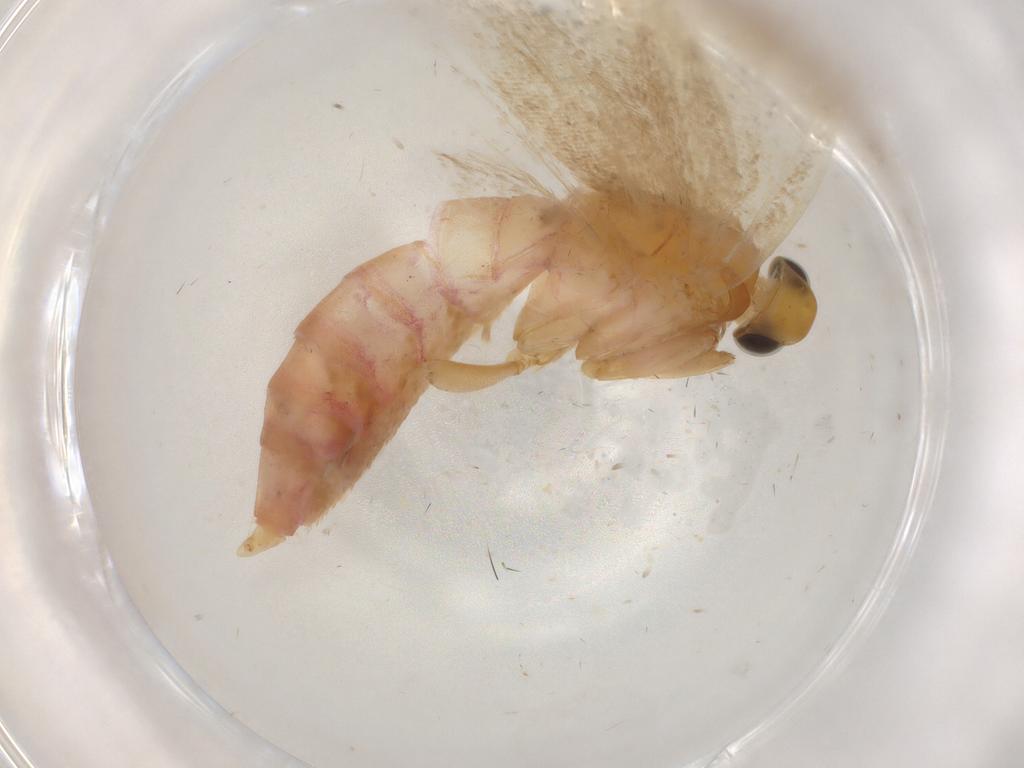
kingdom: Animalia
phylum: Arthropoda
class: Insecta
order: Lepidoptera
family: Autostichidae
